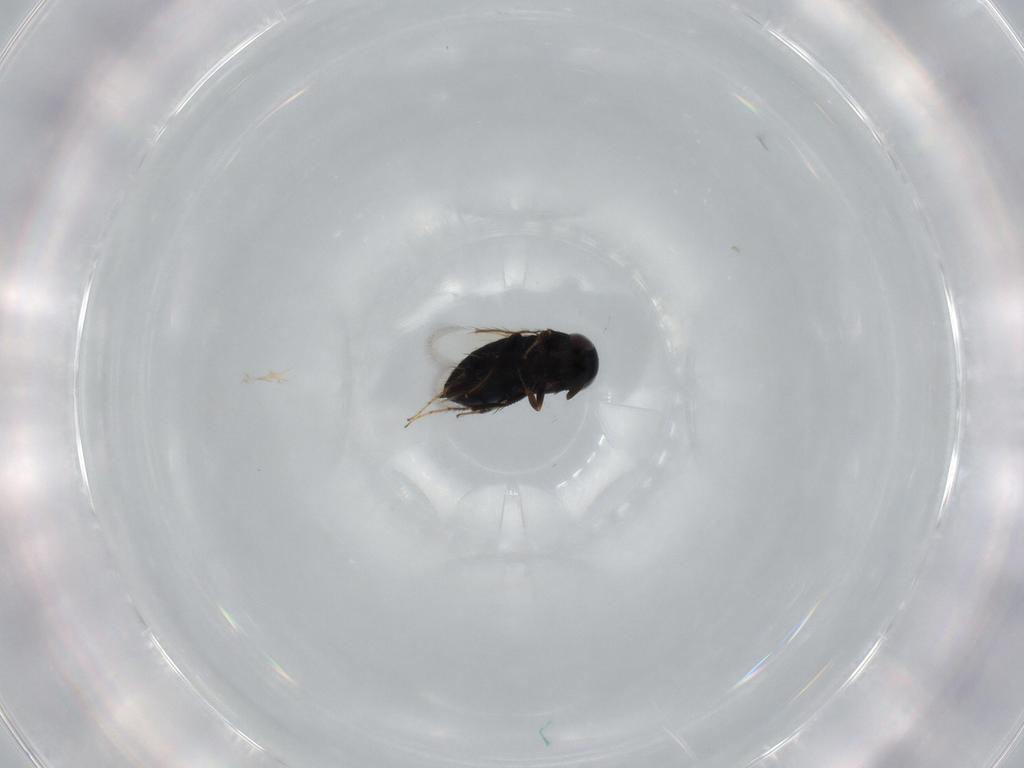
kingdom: Animalia
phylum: Arthropoda
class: Insecta
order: Hymenoptera
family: Signiphoridae
